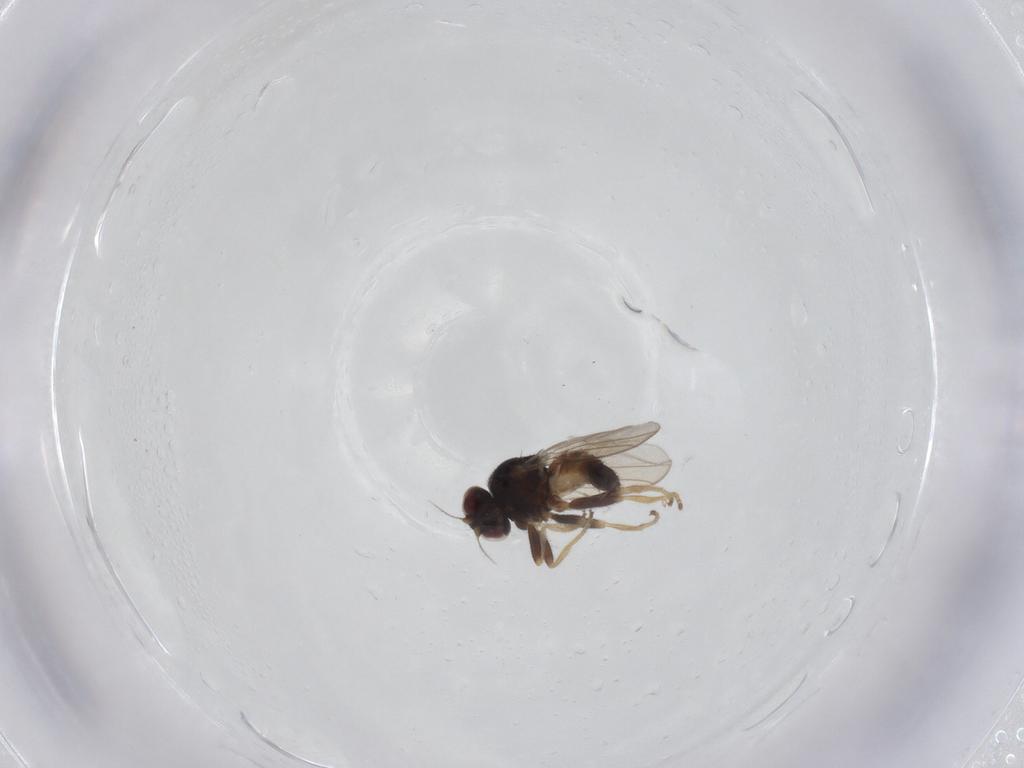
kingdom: Animalia
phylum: Arthropoda
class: Insecta
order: Diptera
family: Chloropidae
